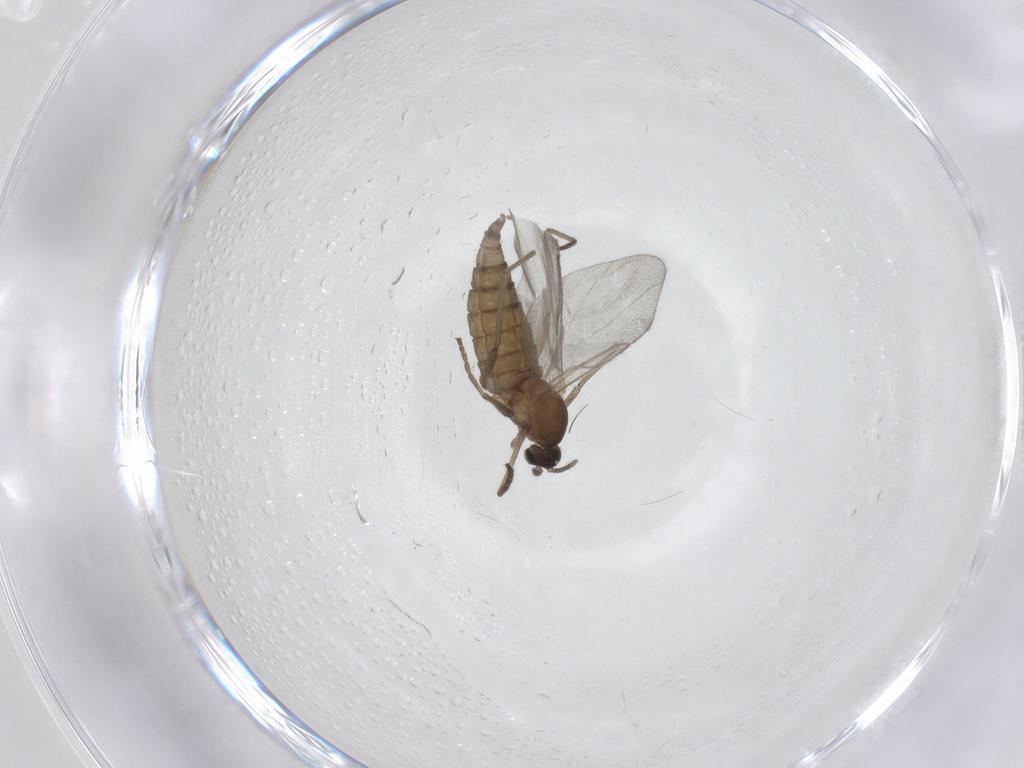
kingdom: Animalia
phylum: Arthropoda
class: Insecta
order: Diptera
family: Cecidomyiidae
